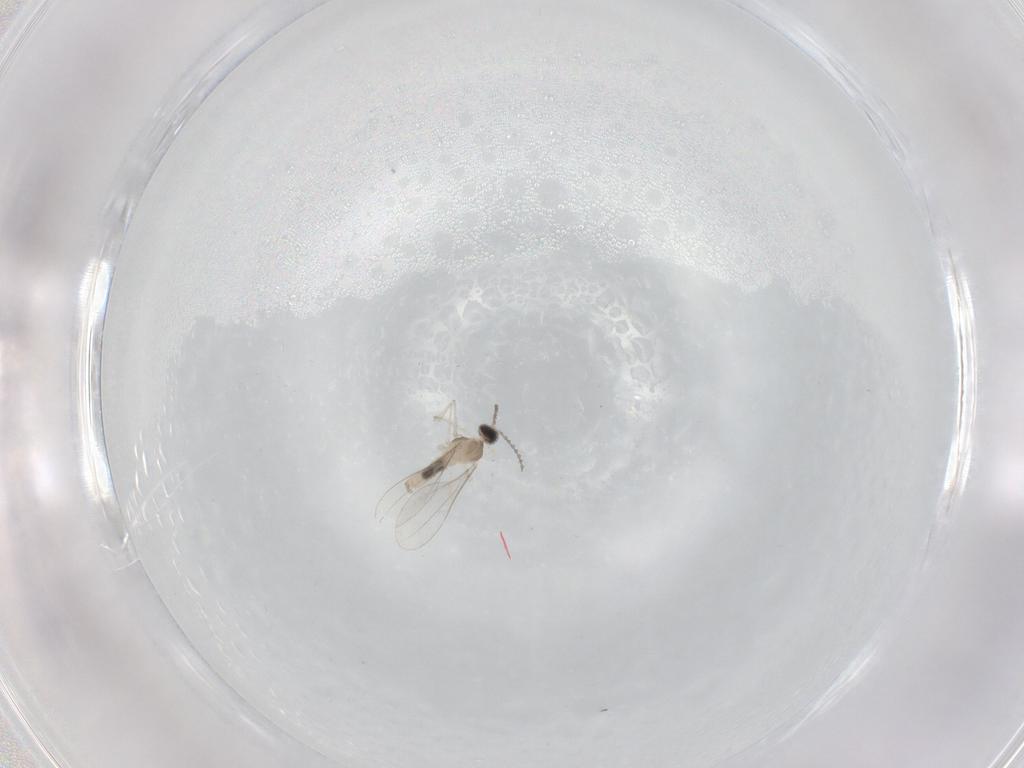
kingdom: Animalia
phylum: Arthropoda
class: Insecta
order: Diptera
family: Cecidomyiidae
